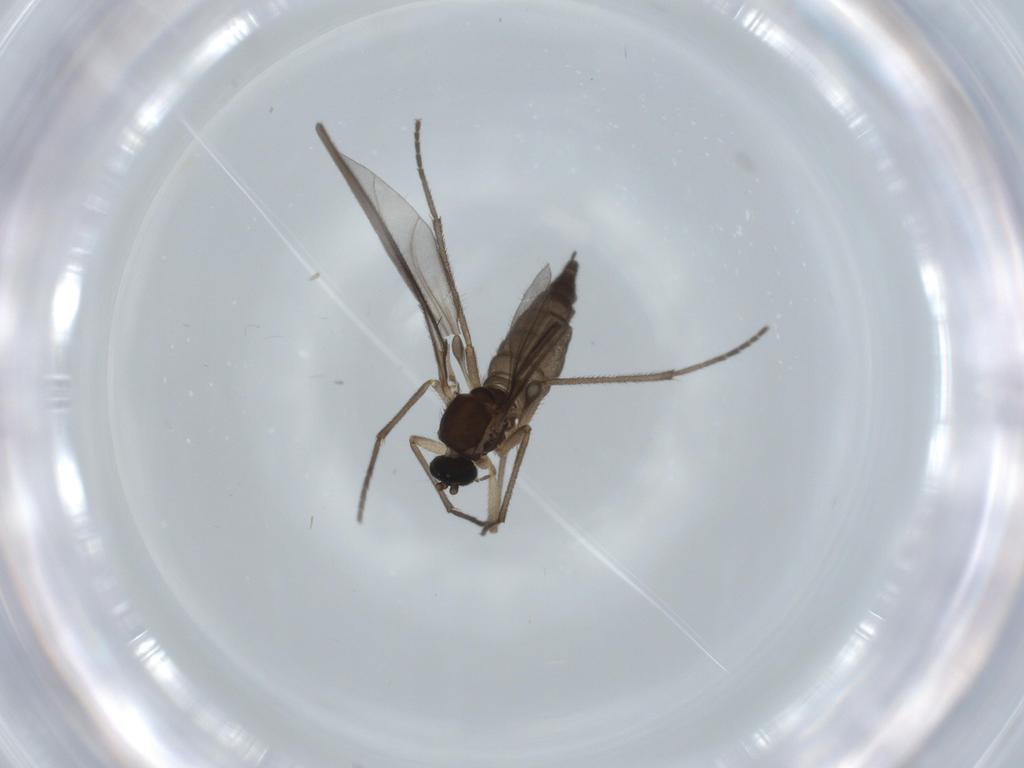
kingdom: Animalia
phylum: Arthropoda
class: Insecta
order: Diptera
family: Sciaridae
